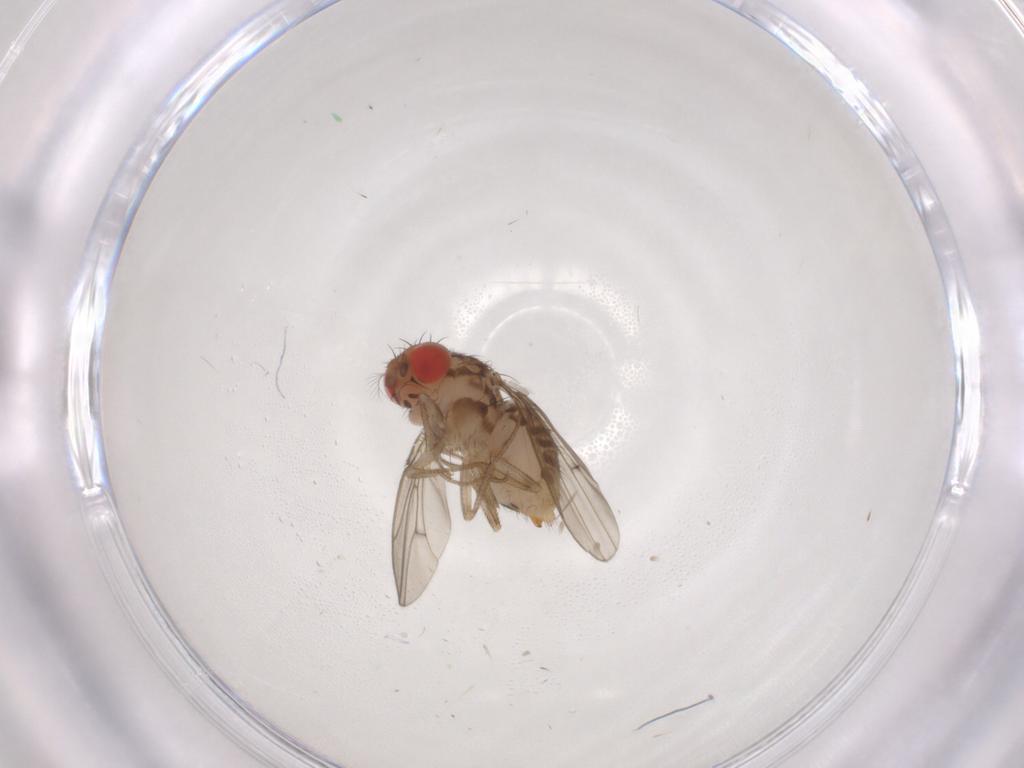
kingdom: Animalia
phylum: Arthropoda
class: Insecta
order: Diptera
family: Drosophilidae
